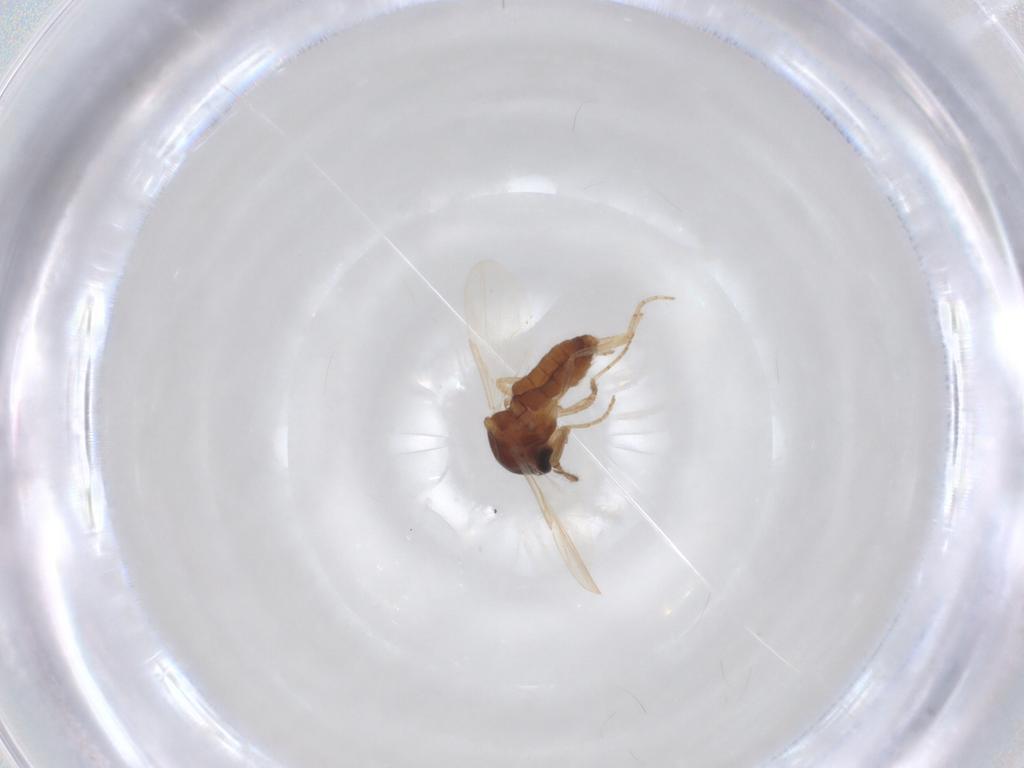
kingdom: Animalia
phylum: Arthropoda
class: Insecta
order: Diptera
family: Ceratopogonidae
